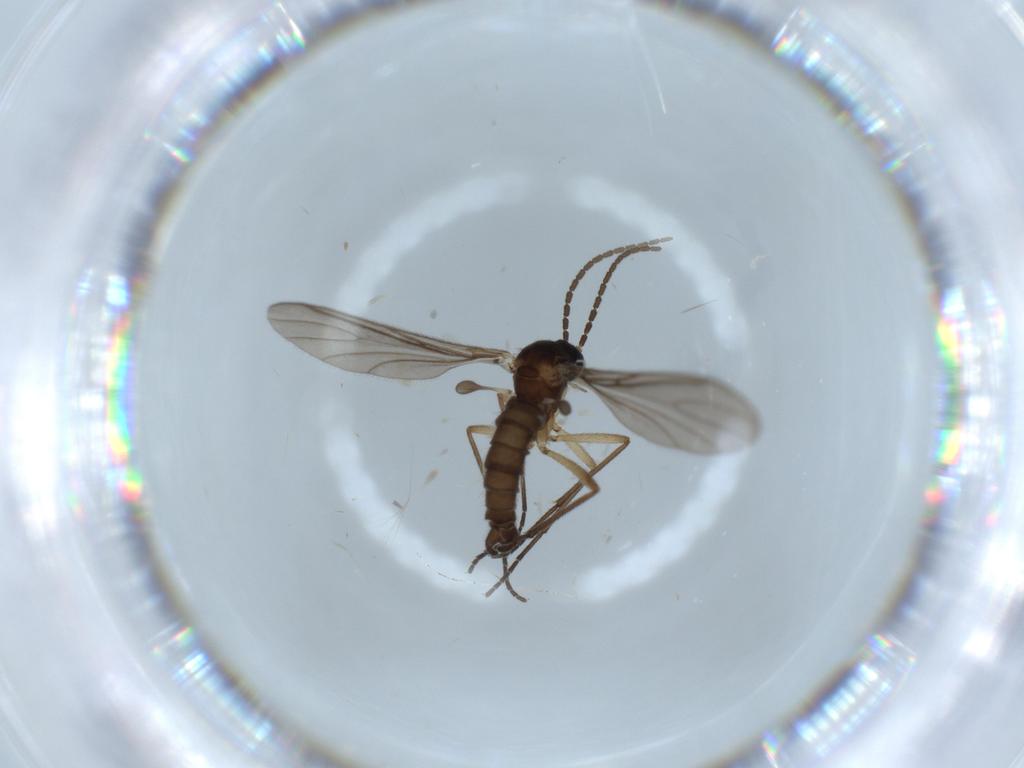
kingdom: Animalia
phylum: Arthropoda
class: Insecta
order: Diptera
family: Sciaridae
